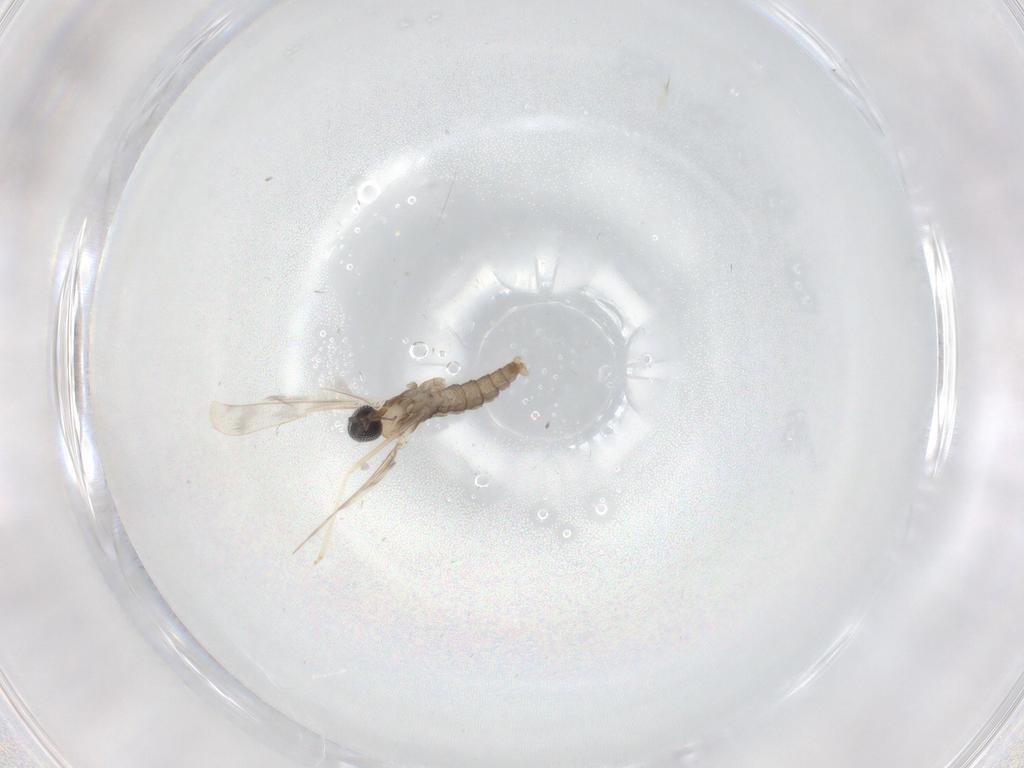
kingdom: Animalia
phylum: Arthropoda
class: Insecta
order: Diptera
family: Cecidomyiidae
